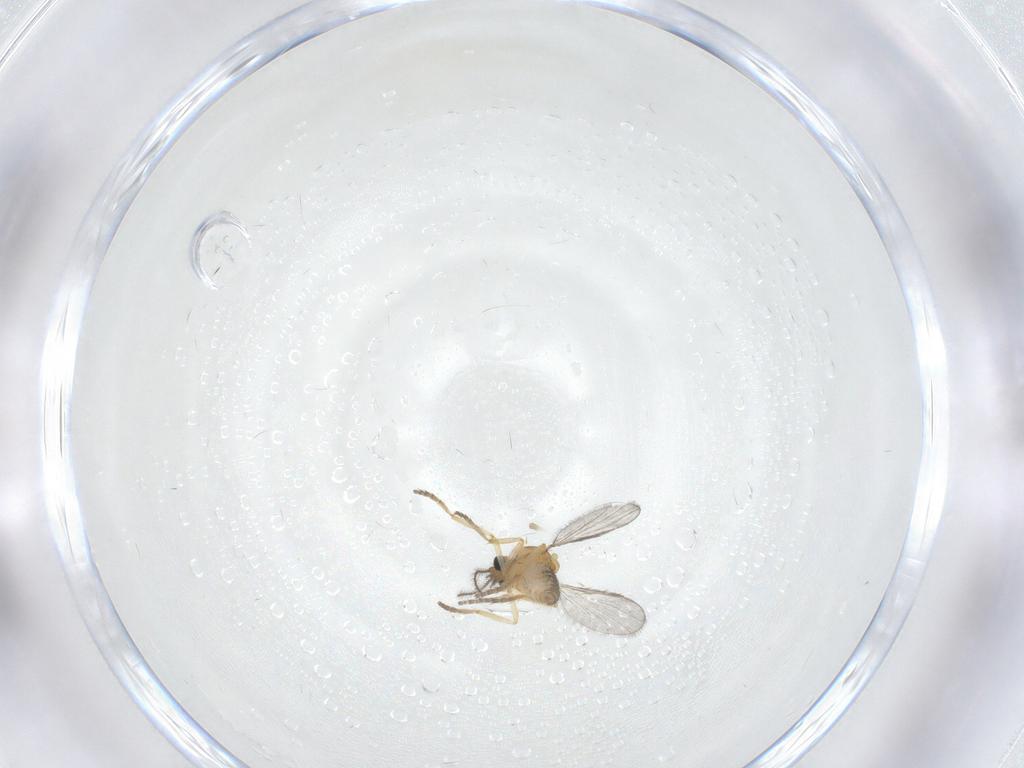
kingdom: Animalia
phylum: Arthropoda
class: Insecta
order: Diptera
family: Ceratopogonidae
